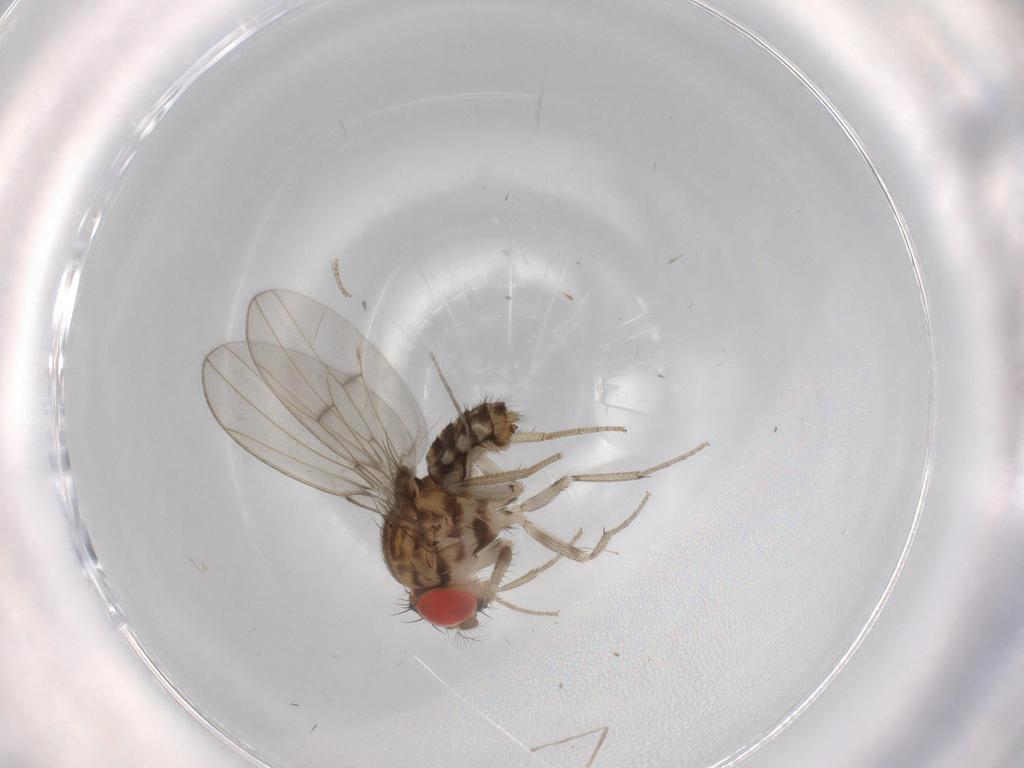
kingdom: Animalia
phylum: Arthropoda
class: Insecta
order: Diptera
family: Drosophilidae
